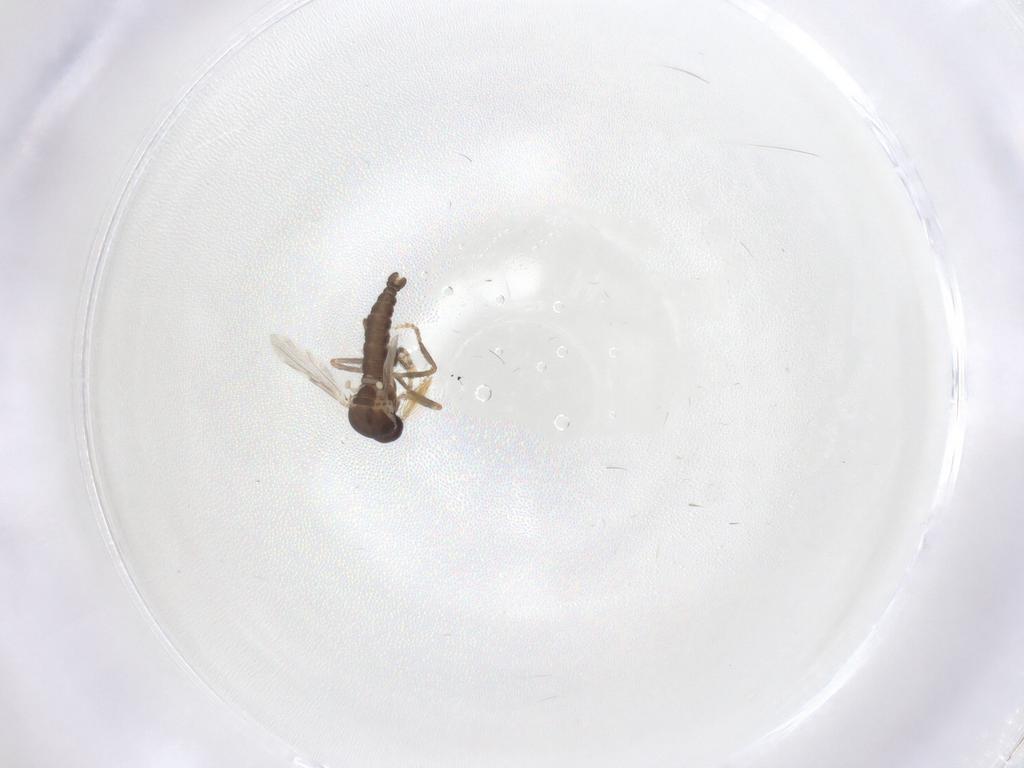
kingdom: Animalia
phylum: Arthropoda
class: Insecta
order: Diptera
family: Ceratopogonidae
